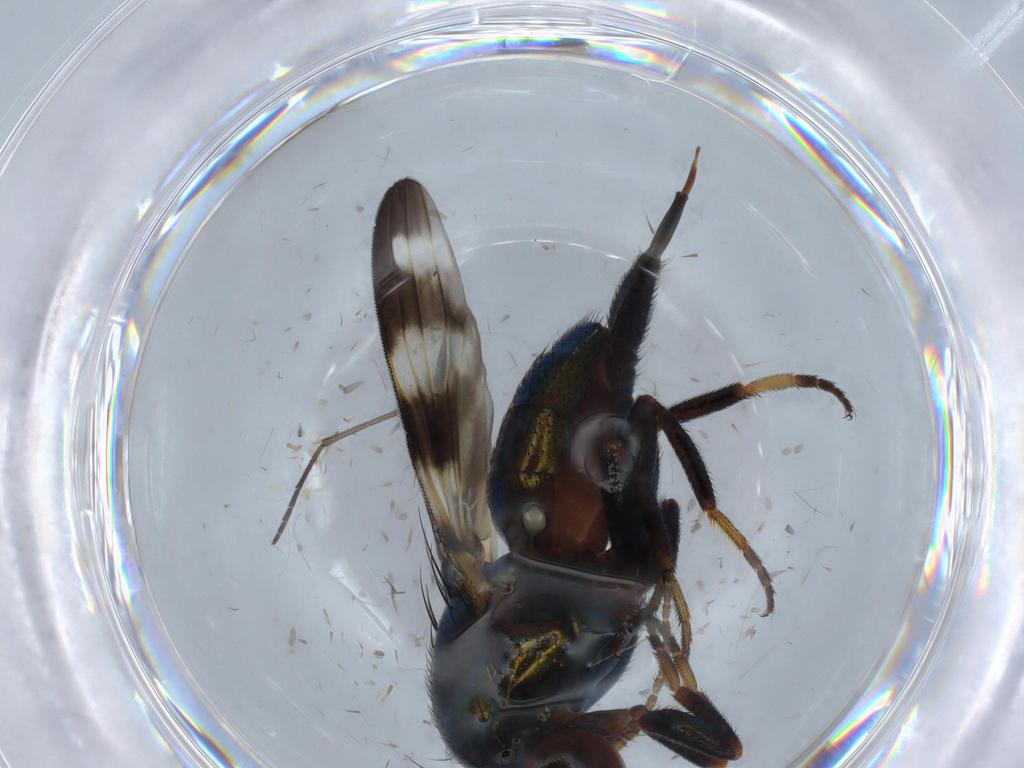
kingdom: Animalia
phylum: Arthropoda
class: Insecta
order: Diptera
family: Ulidiidae
